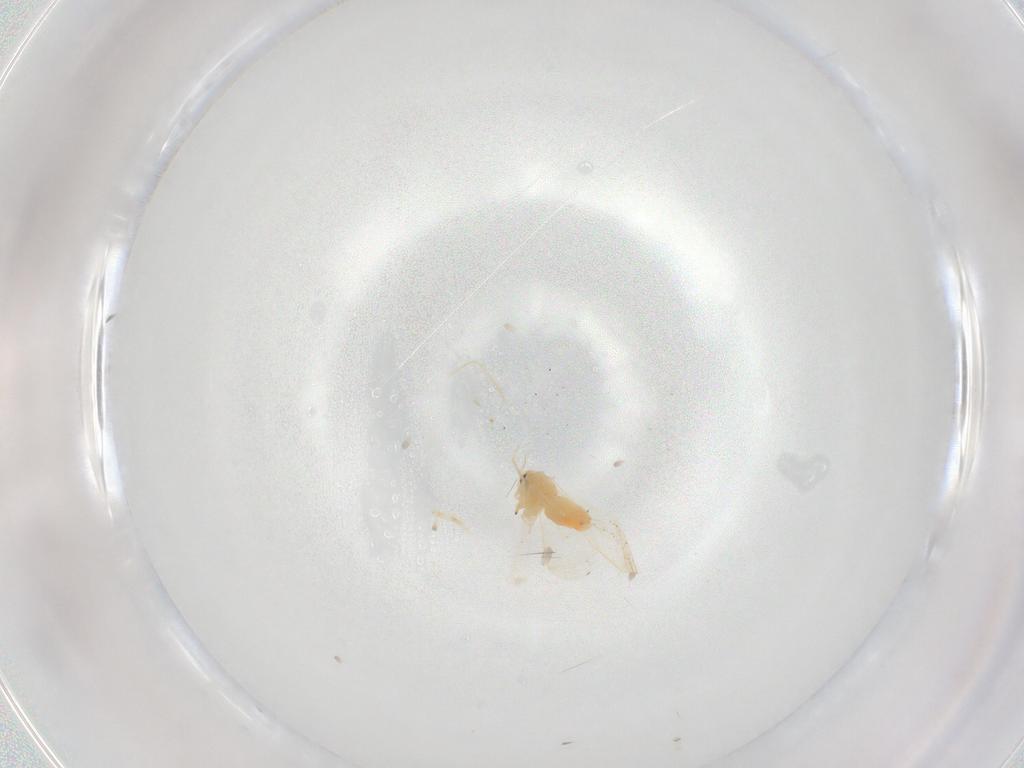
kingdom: Animalia
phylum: Arthropoda
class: Insecta
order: Hemiptera
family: Aleyrodidae
